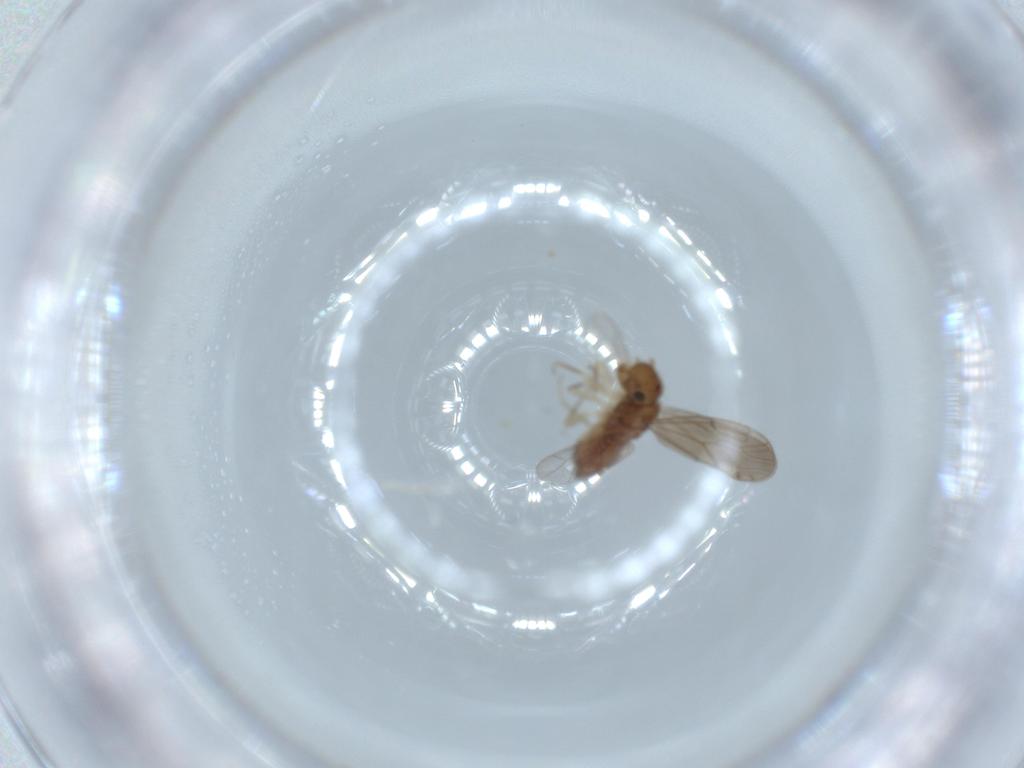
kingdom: Animalia
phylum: Arthropoda
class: Insecta
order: Psocodea
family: Ectopsocidae
